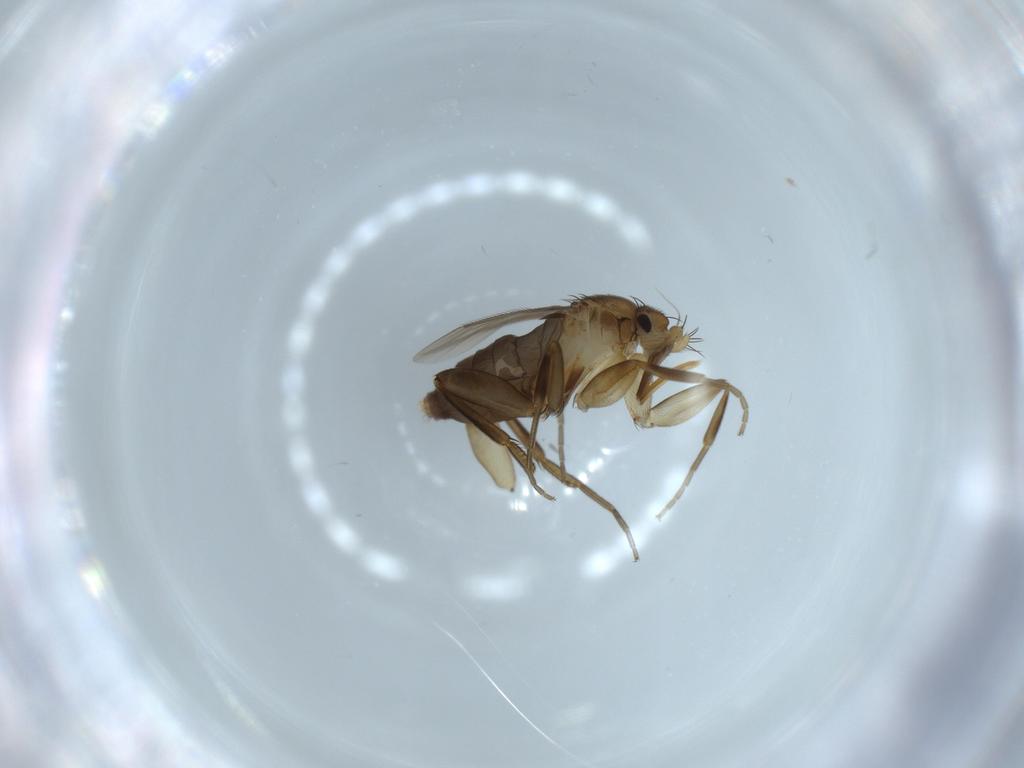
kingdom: Animalia
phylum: Arthropoda
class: Insecta
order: Diptera
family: Phoridae
